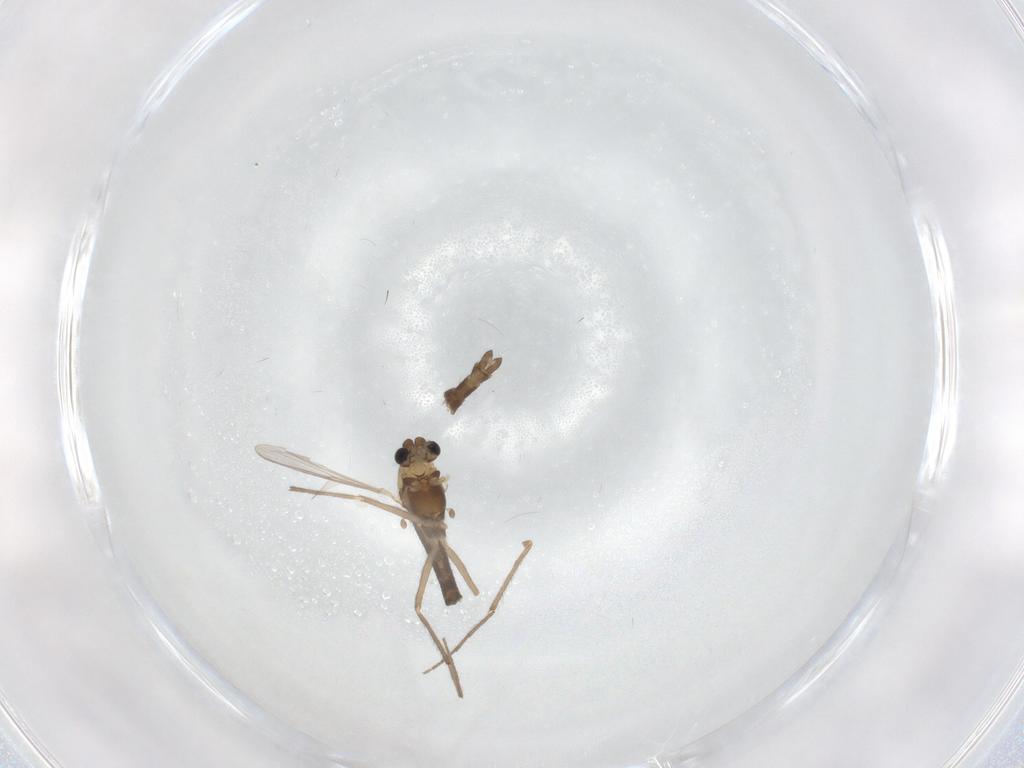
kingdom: Animalia
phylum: Arthropoda
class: Insecta
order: Diptera
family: Chironomidae
